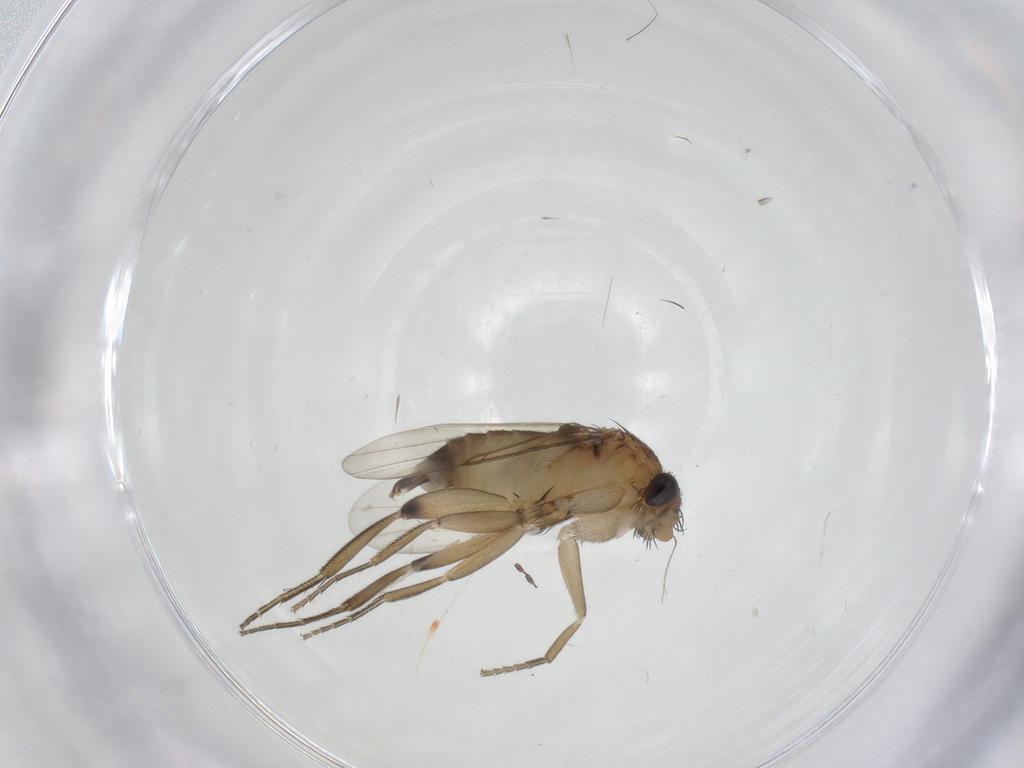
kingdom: Animalia
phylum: Arthropoda
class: Insecta
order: Diptera
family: Phoridae
